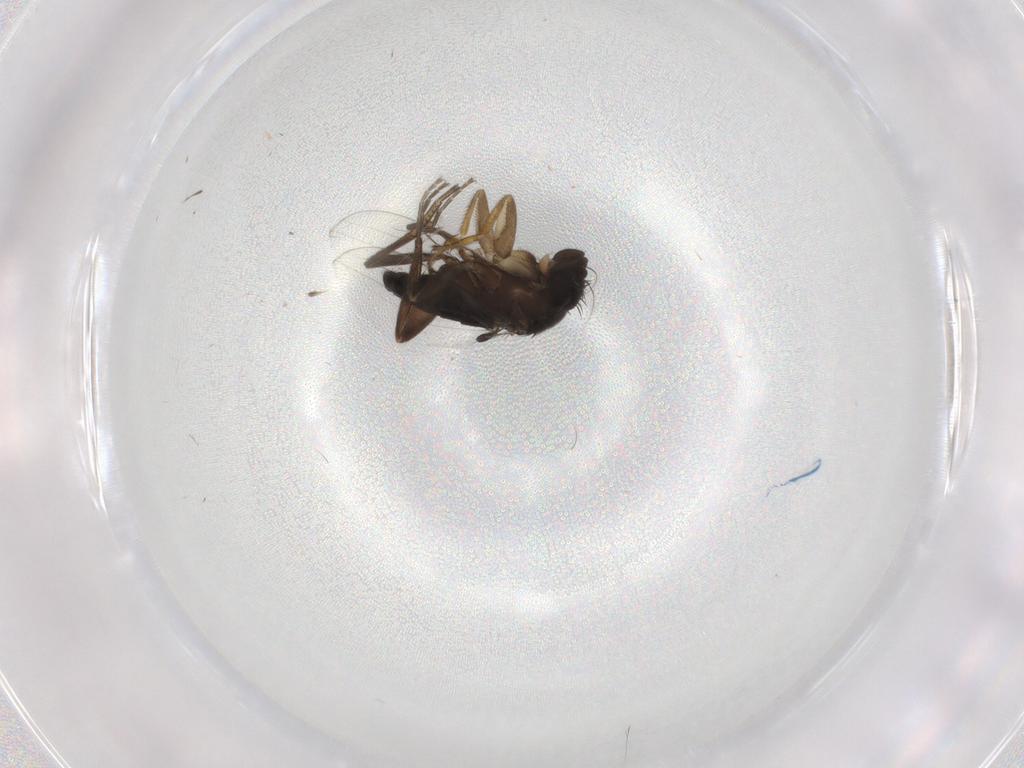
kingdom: Animalia
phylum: Arthropoda
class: Insecta
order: Diptera
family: Phoridae
